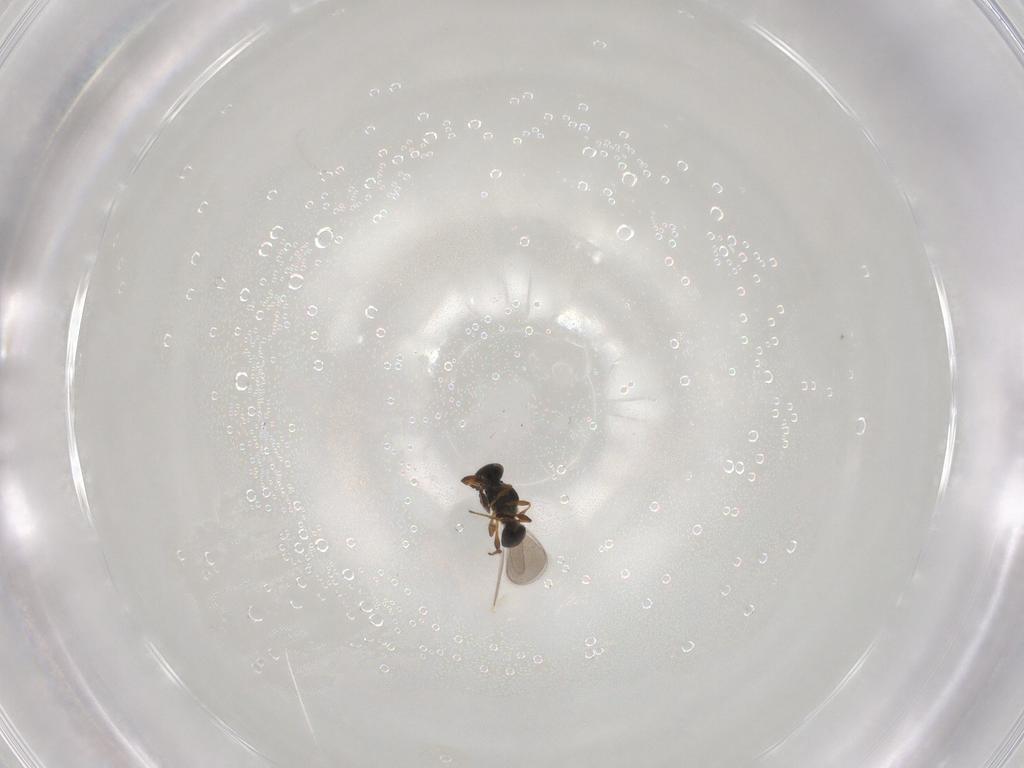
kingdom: Animalia
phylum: Arthropoda
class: Insecta
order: Hymenoptera
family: Platygastridae
